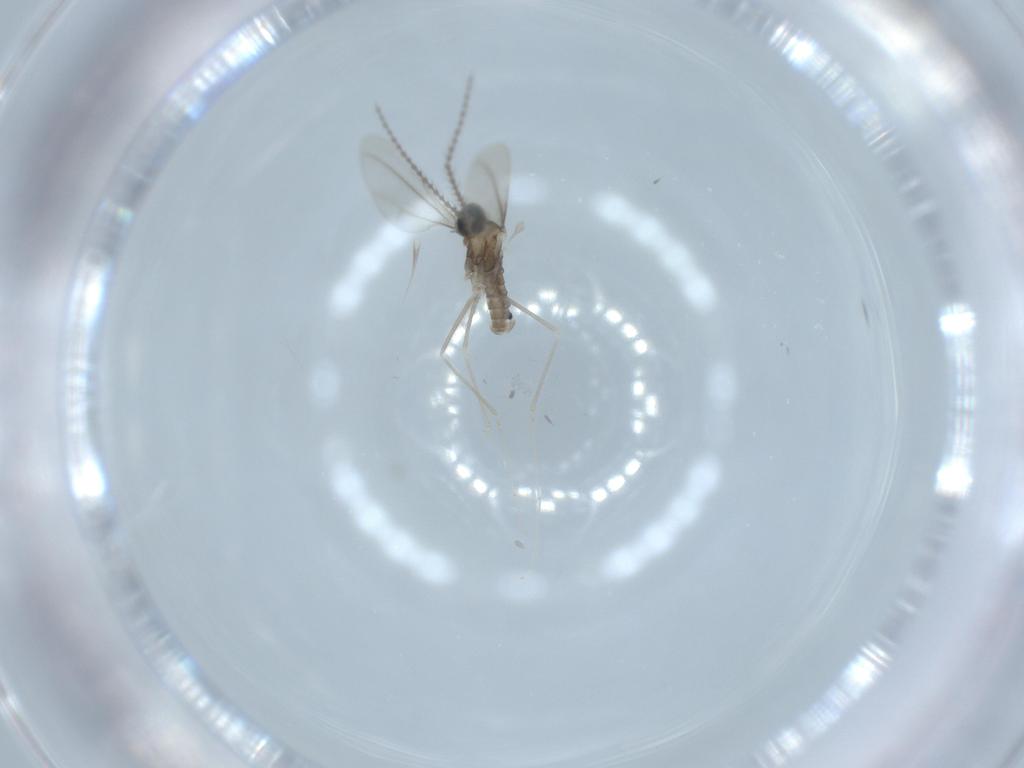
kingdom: Animalia
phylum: Arthropoda
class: Insecta
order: Diptera
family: Cecidomyiidae
